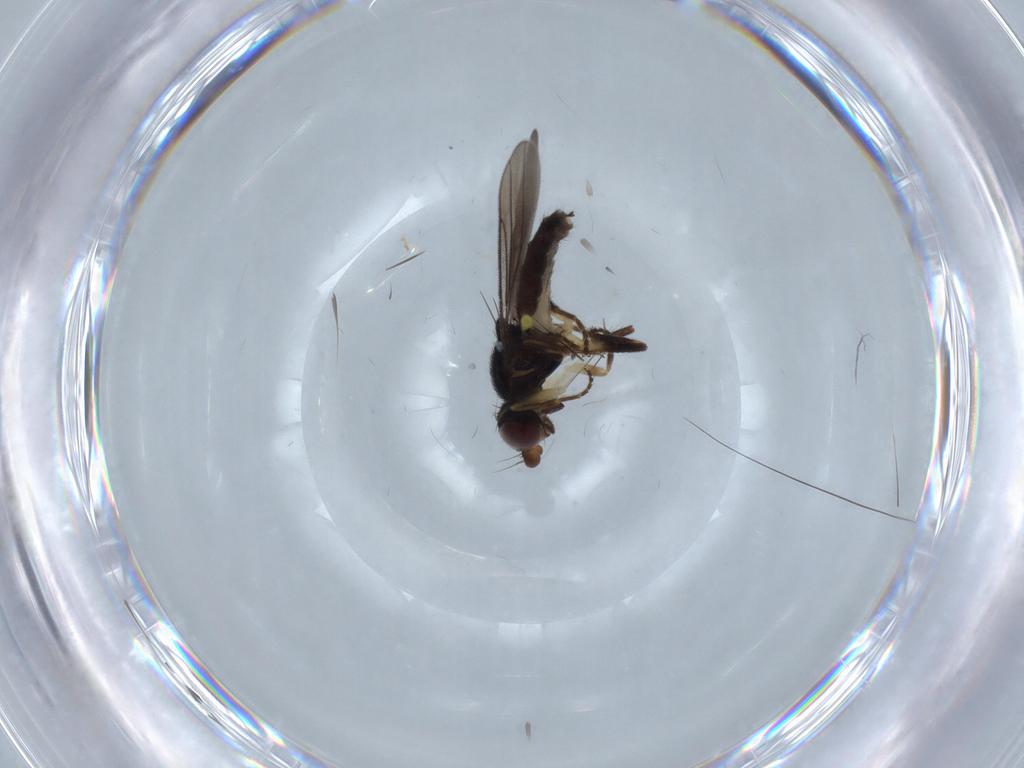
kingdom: Animalia
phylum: Arthropoda
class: Insecta
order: Diptera
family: Chloropidae
